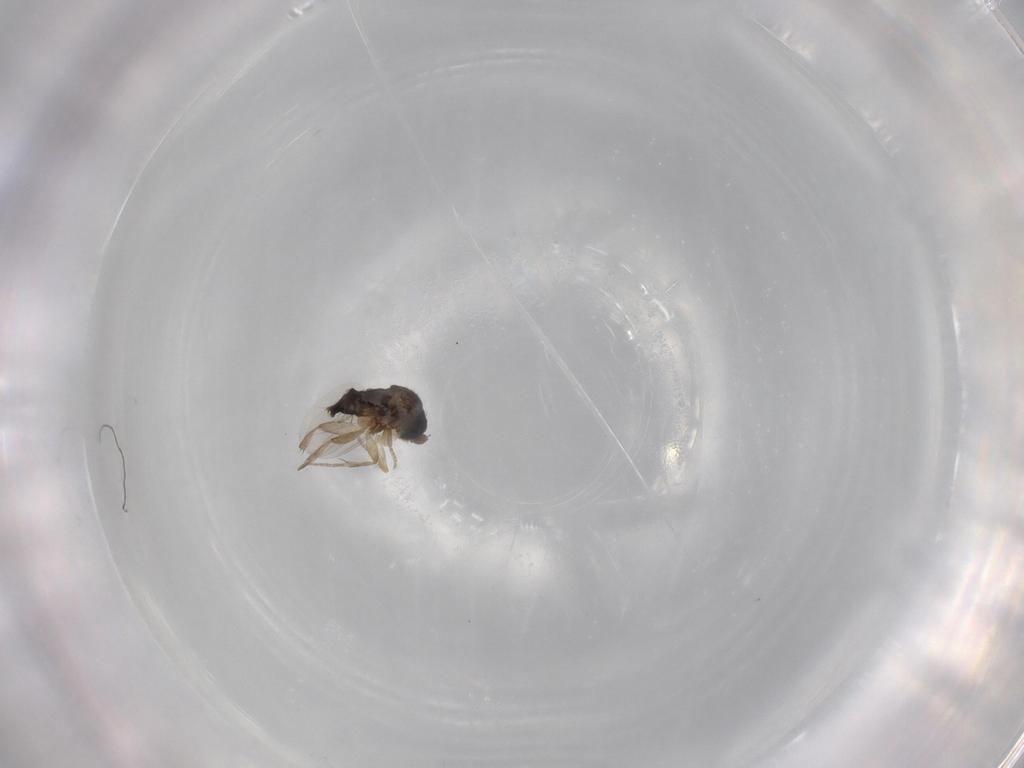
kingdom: Animalia
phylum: Arthropoda
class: Insecta
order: Diptera
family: Phoridae
